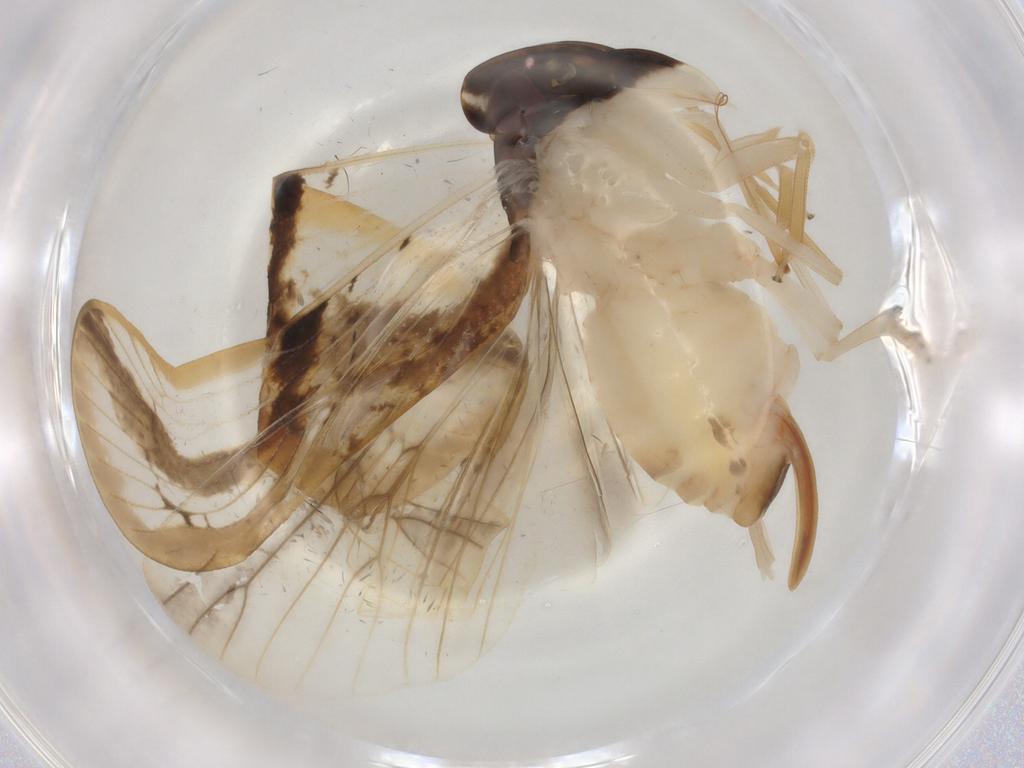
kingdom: Animalia
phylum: Arthropoda
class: Insecta
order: Hemiptera
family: Cixiidae
